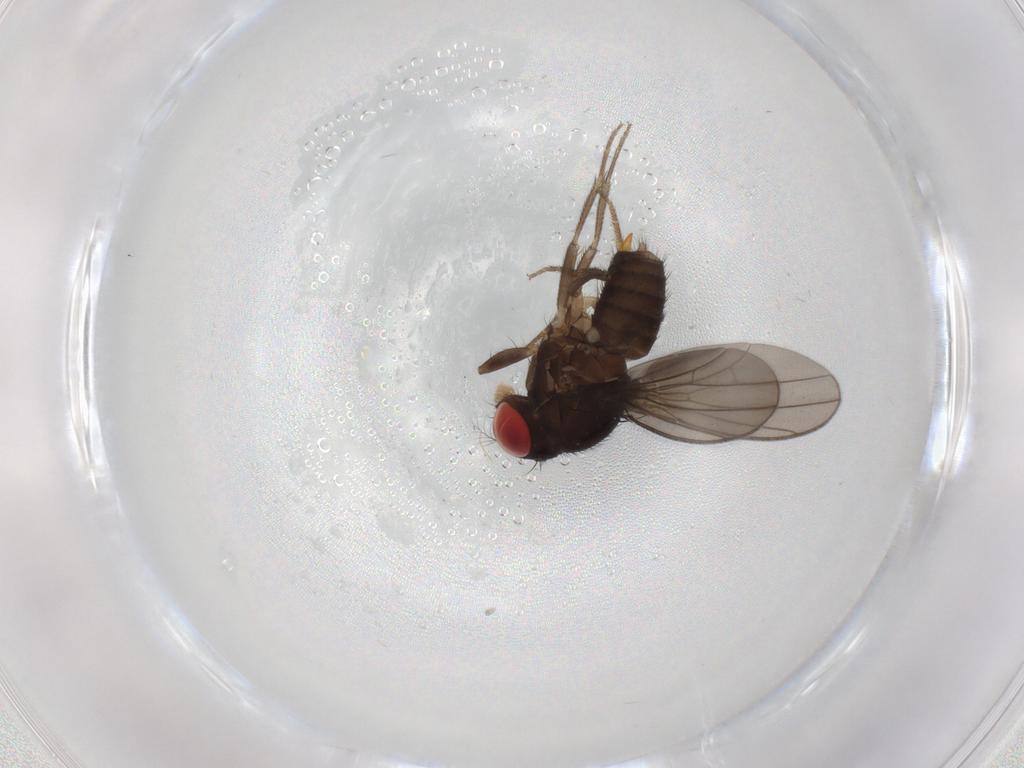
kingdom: Animalia
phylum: Arthropoda
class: Insecta
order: Diptera
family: Drosophilidae
